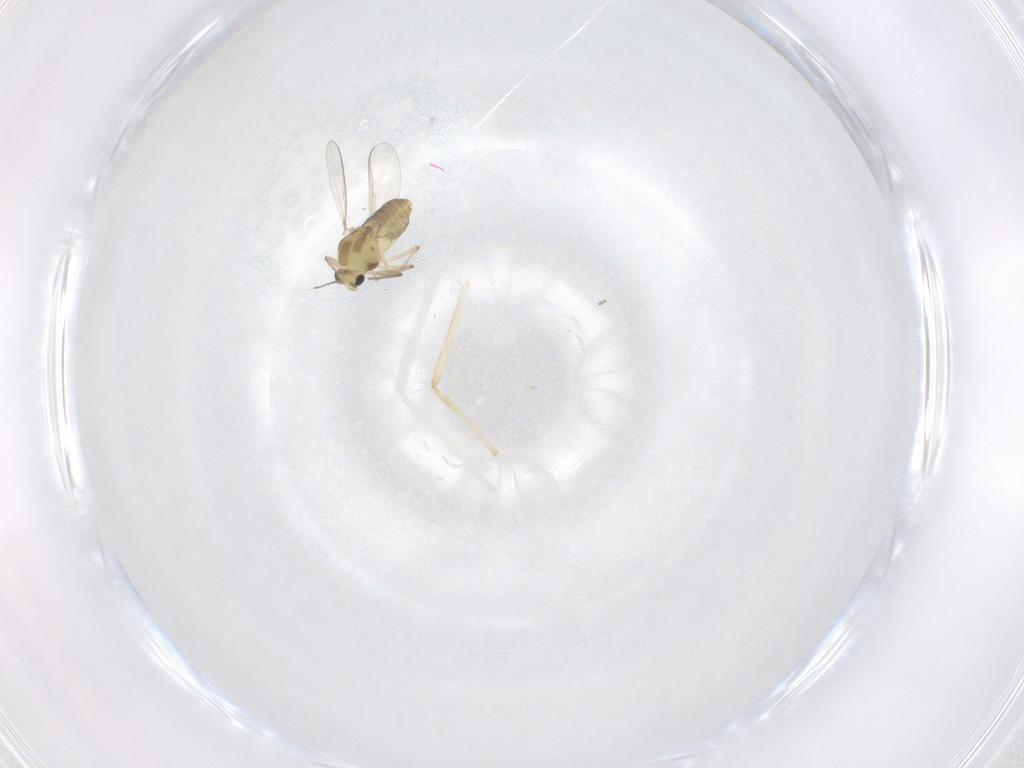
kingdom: Animalia
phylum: Arthropoda
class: Insecta
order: Diptera
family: Chironomidae
